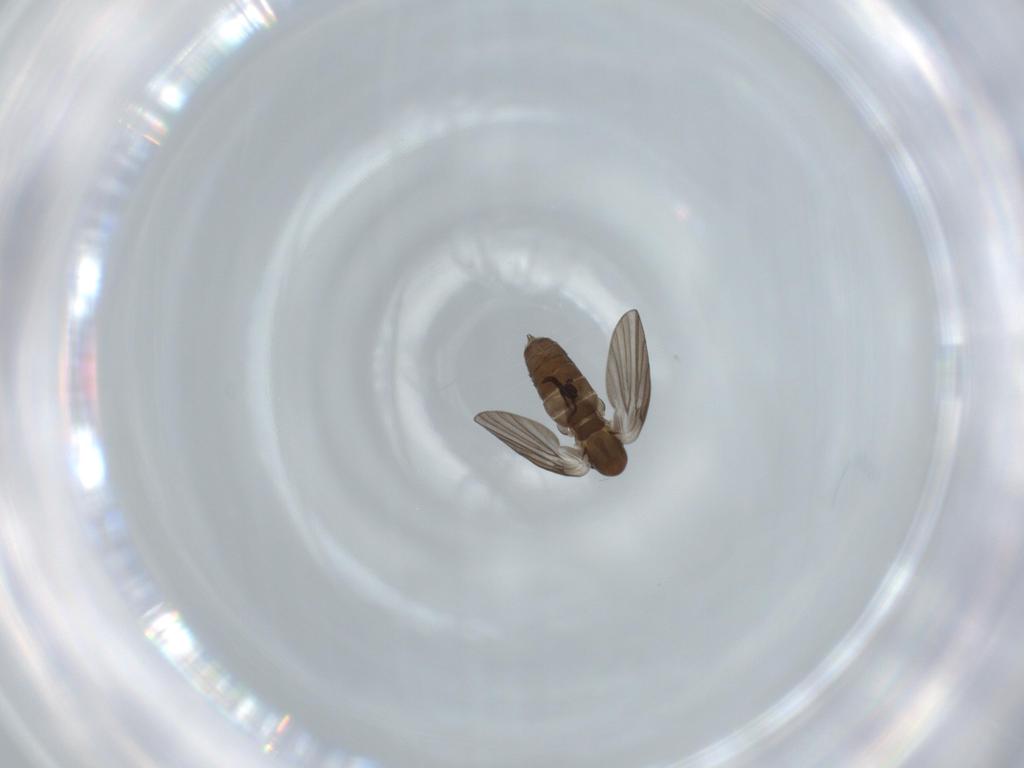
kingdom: Animalia
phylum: Arthropoda
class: Insecta
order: Diptera
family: Psychodidae
